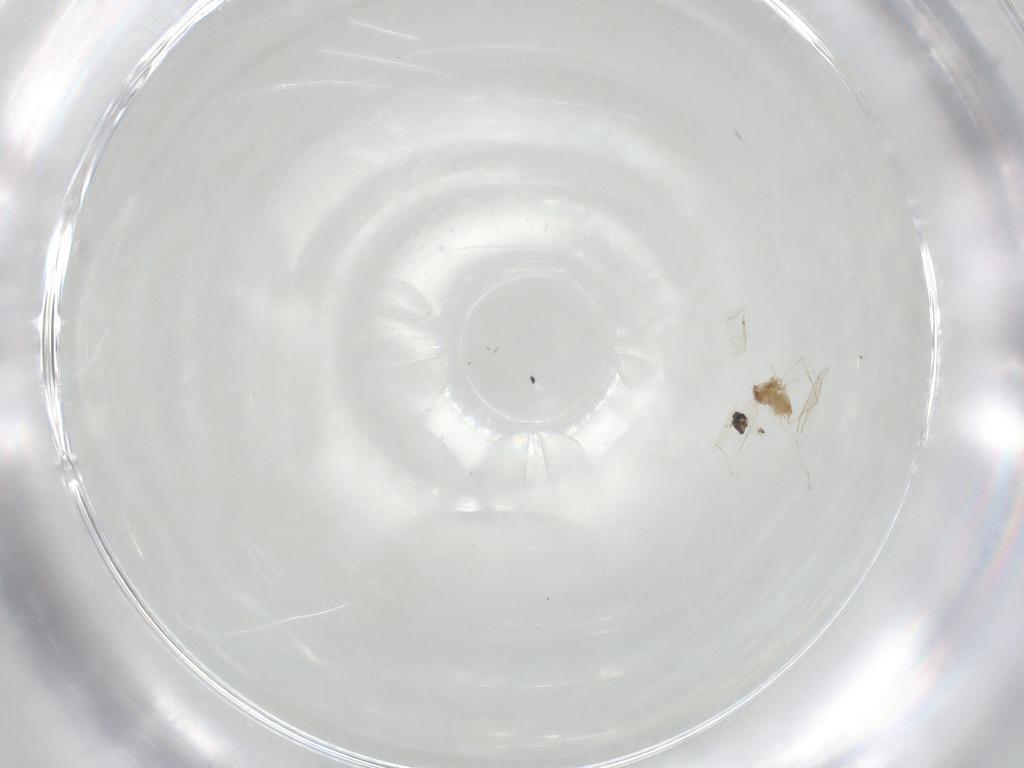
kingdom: Animalia
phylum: Arthropoda
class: Insecta
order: Diptera
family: Cecidomyiidae
